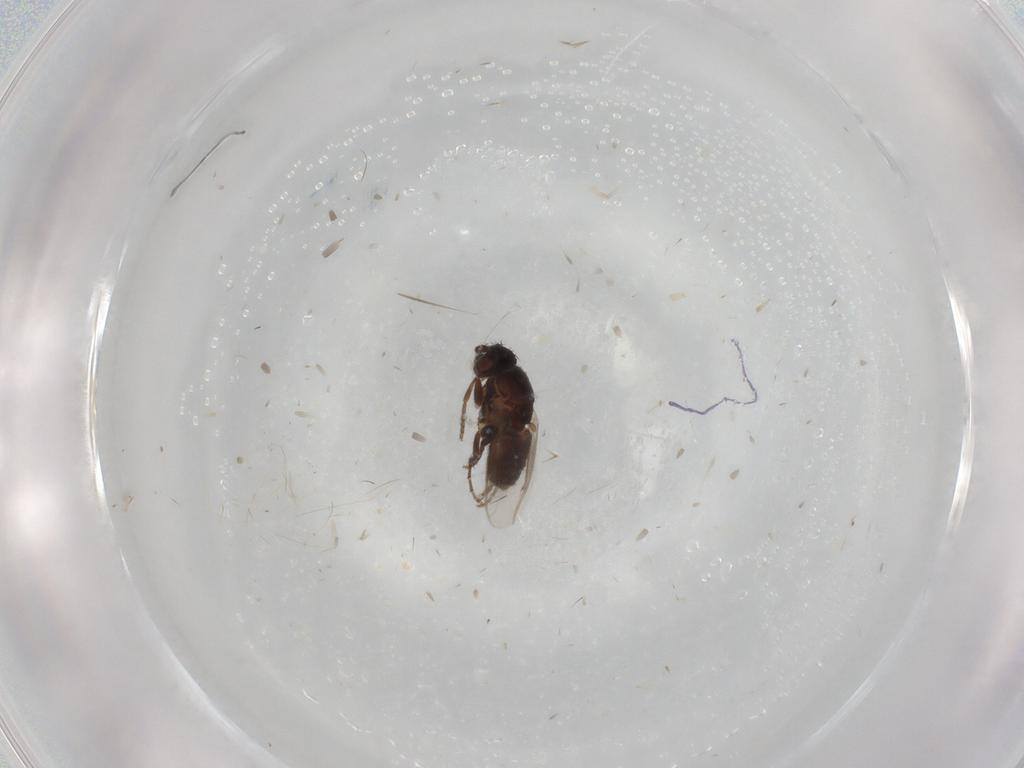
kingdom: Animalia
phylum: Arthropoda
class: Insecta
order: Diptera
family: Sphaeroceridae
